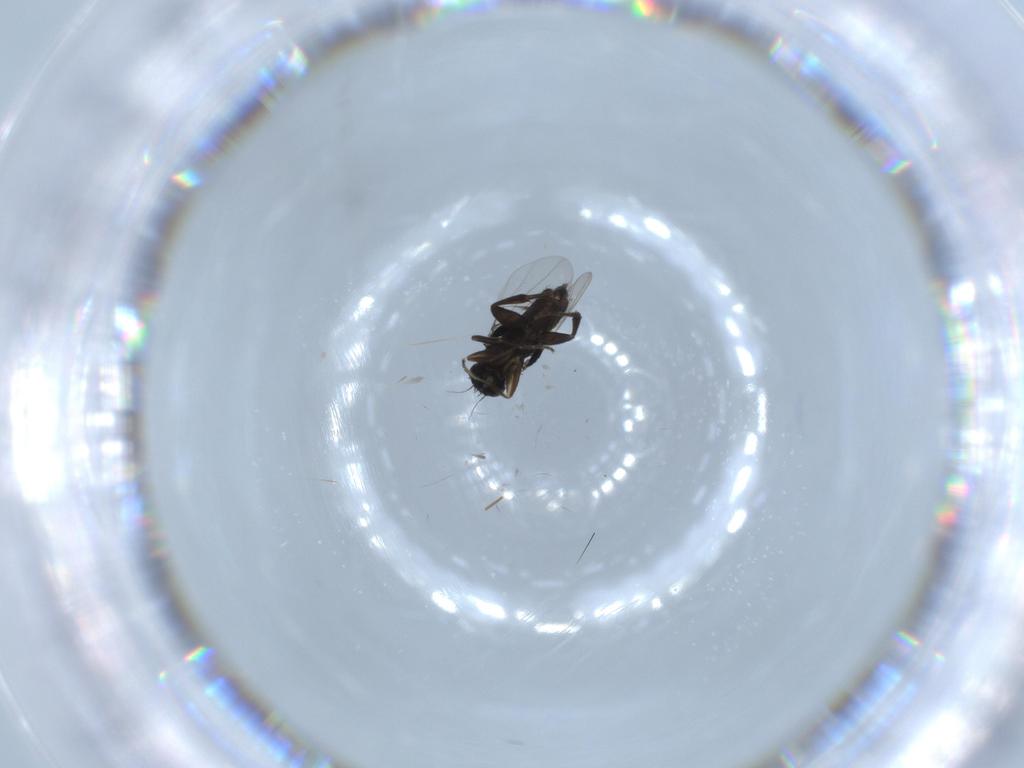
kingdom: Animalia
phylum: Arthropoda
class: Insecta
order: Diptera
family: Phoridae
